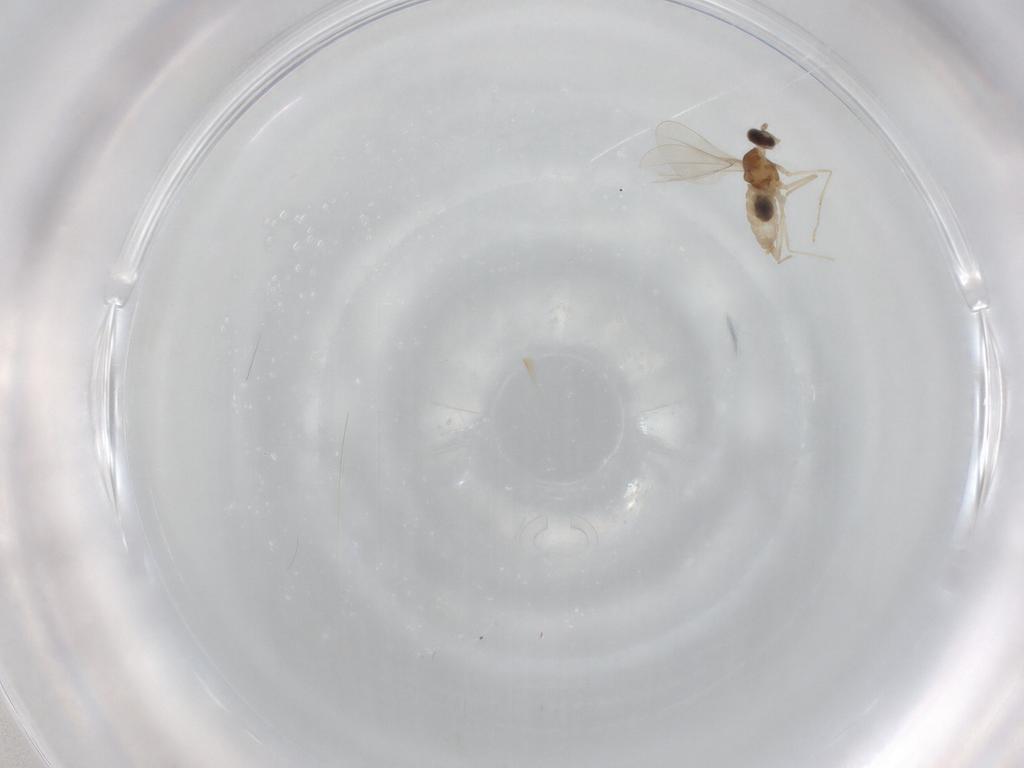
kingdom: Animalia
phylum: Arthropoda
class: Insecta
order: Diptera
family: Cecidomyiidae
